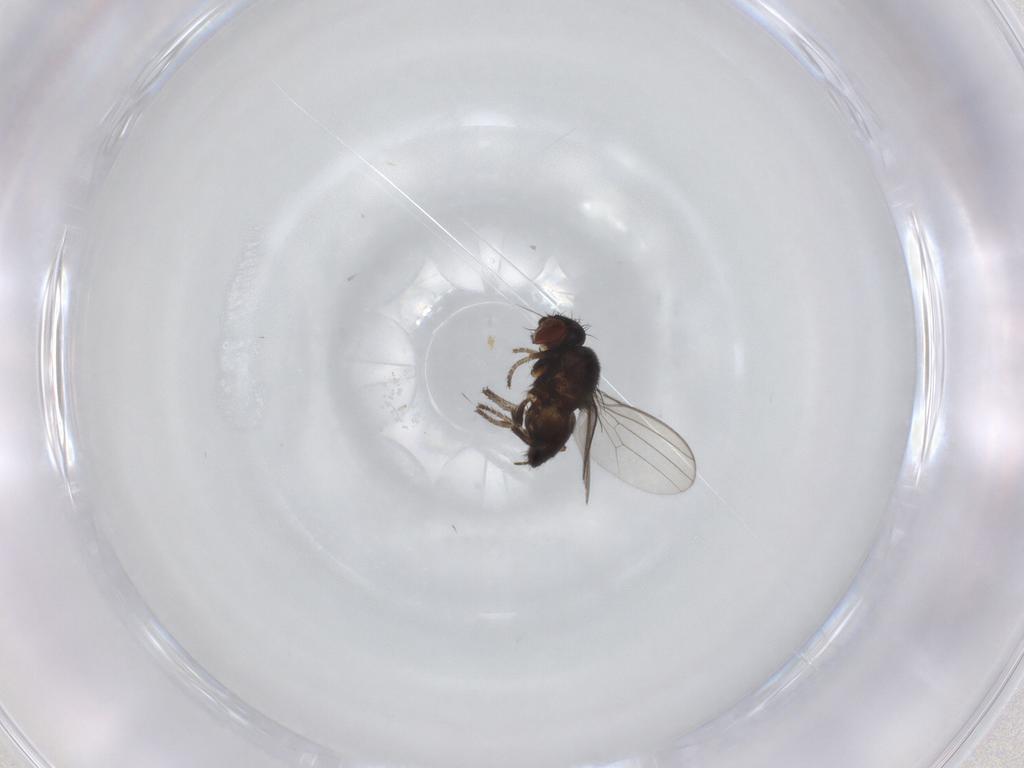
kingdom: Animalia
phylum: Arthropoda
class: Insecta
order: Diptera
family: Milichiidae
